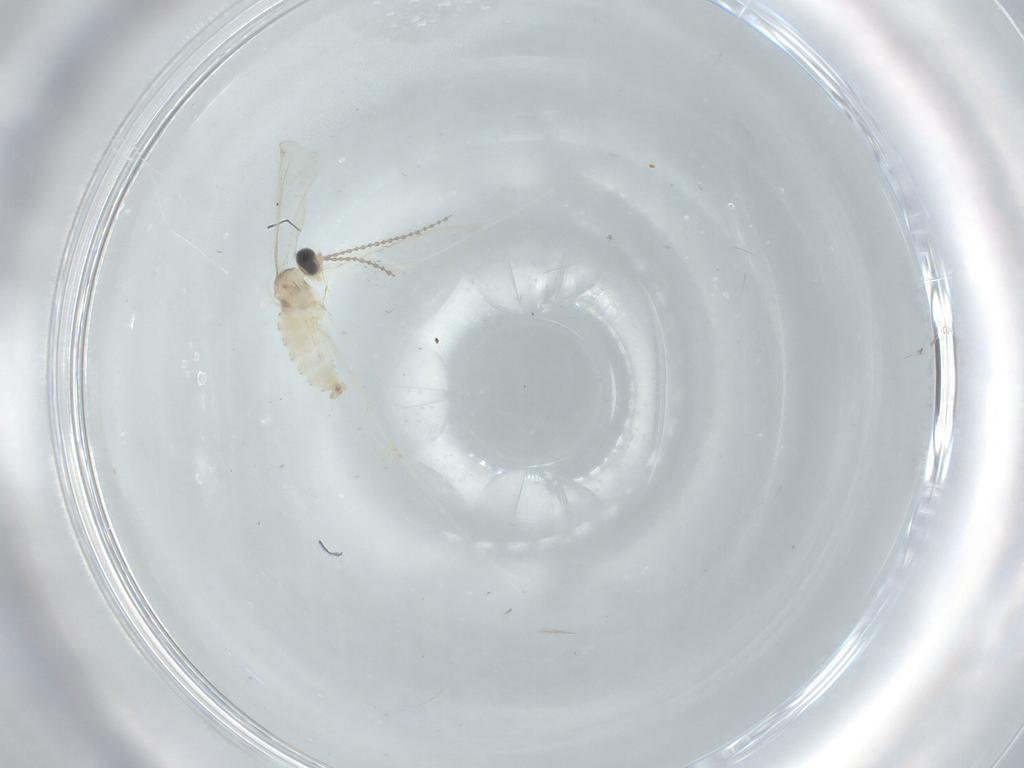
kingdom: Animalia
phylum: Arthropoda
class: Insecta
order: Diptera
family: Cecidomyiidae
